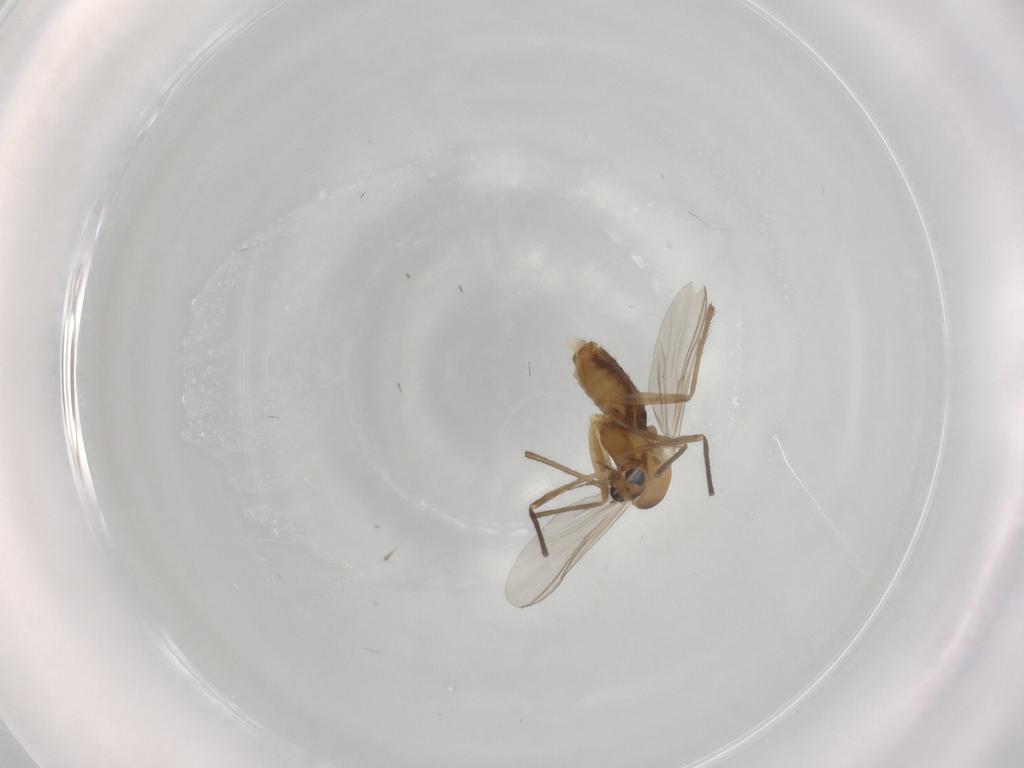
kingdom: Animalia
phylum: Arthropoda
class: Insecta
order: Diptera
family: Chironomidae
